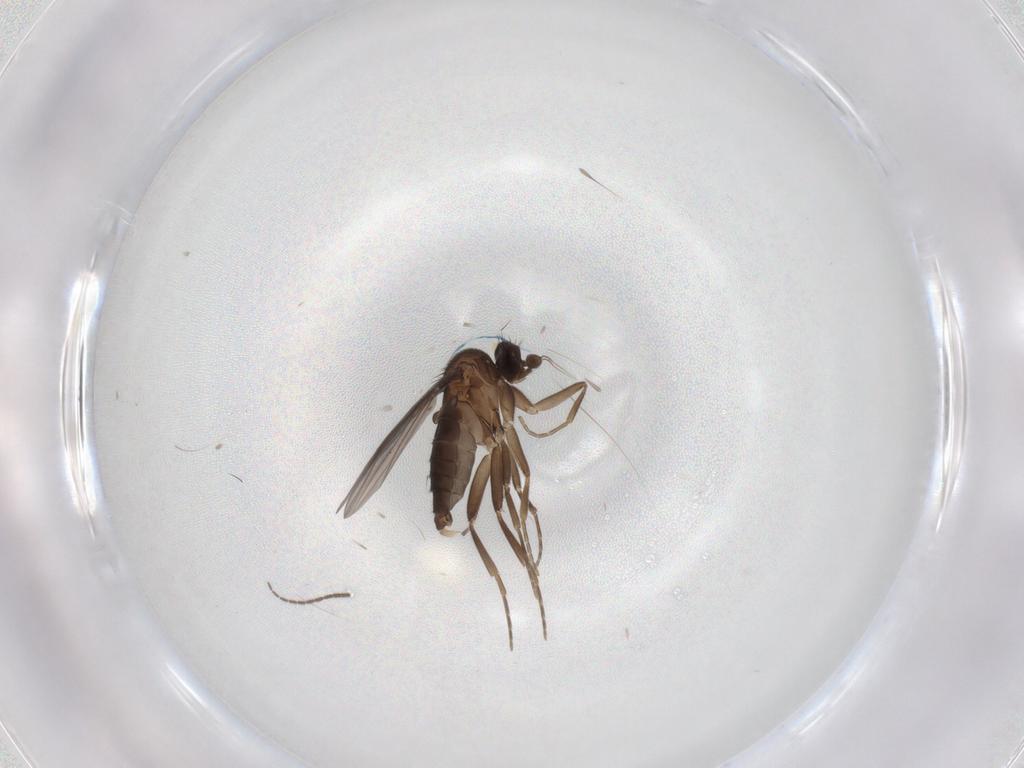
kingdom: Animalia
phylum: Arthropoda
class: Insecta
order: Diptera
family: Sciaridae
